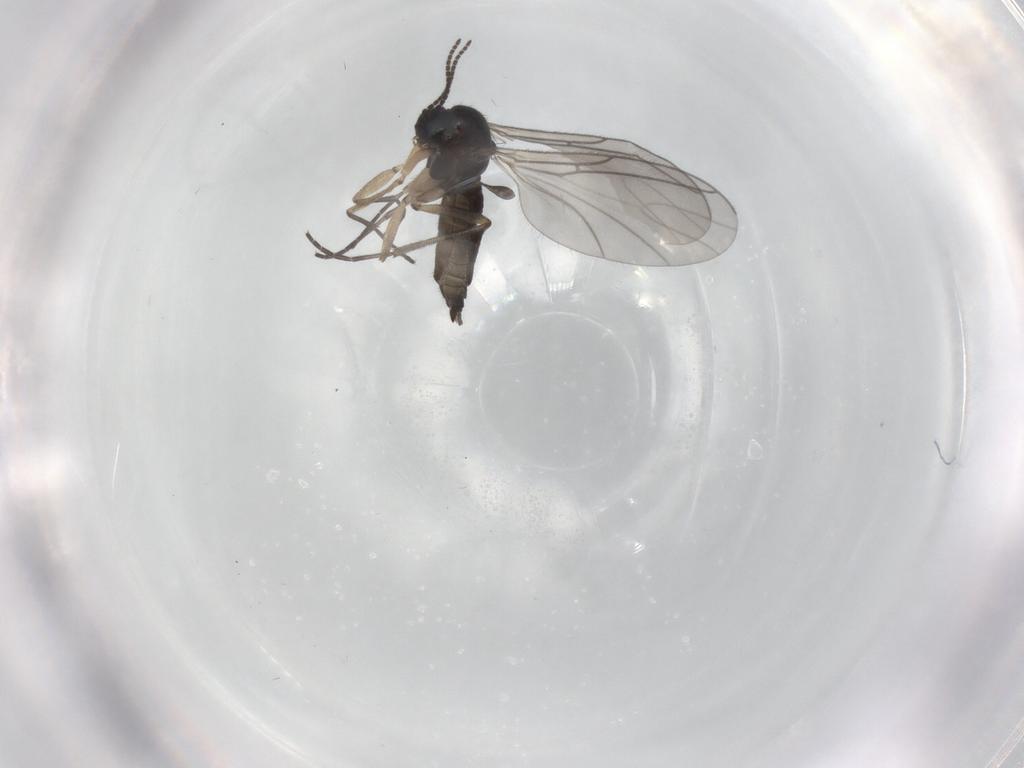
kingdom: Animalia
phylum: Arthropoda
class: Insecta
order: Diptera
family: Sciaridae
